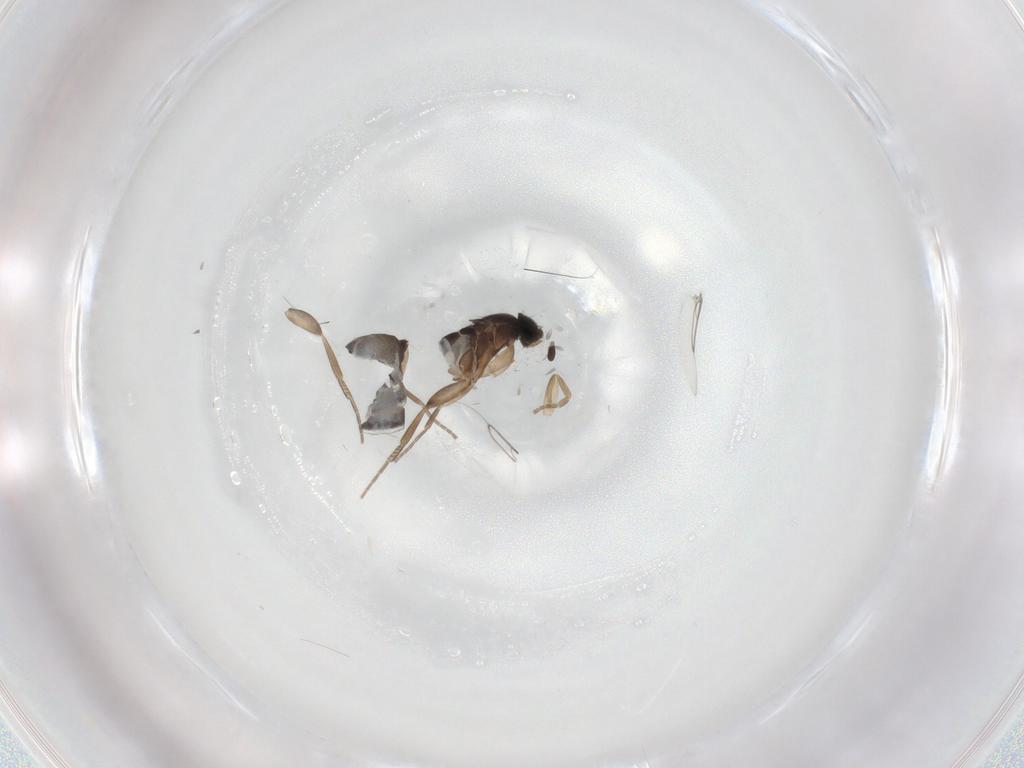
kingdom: Animalia
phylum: Arthropoda
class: Insecta
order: Diptera
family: Phoridae
